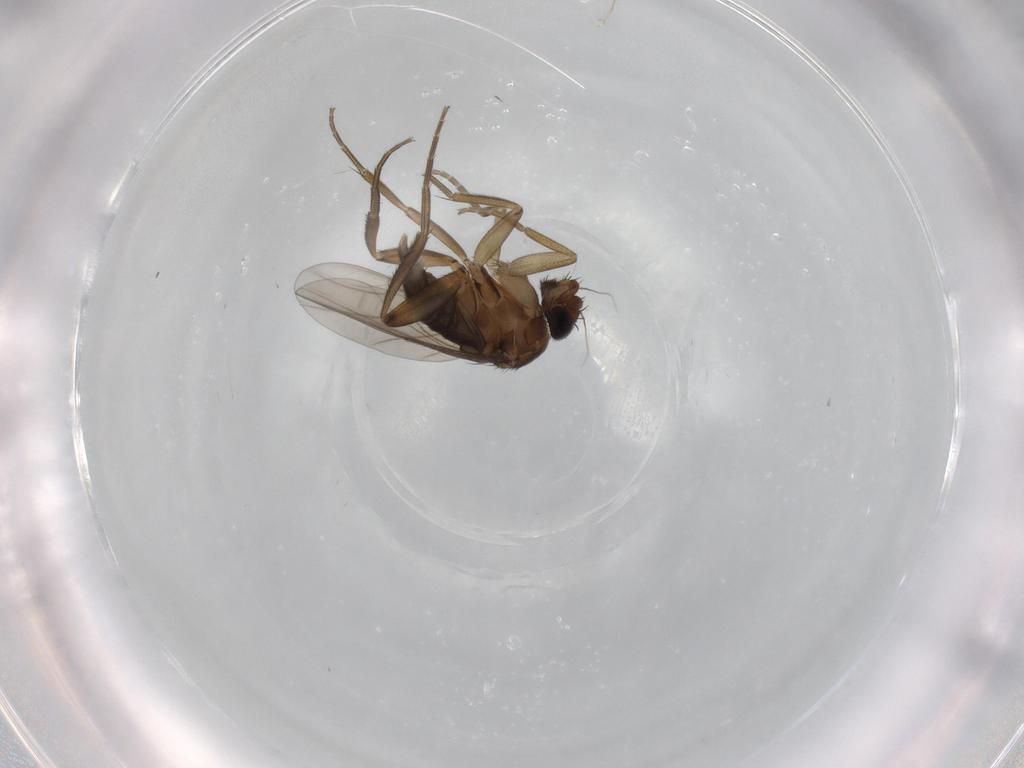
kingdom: Animalia
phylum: Arthropoda
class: Insecta
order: Diptera
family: Phoridae
